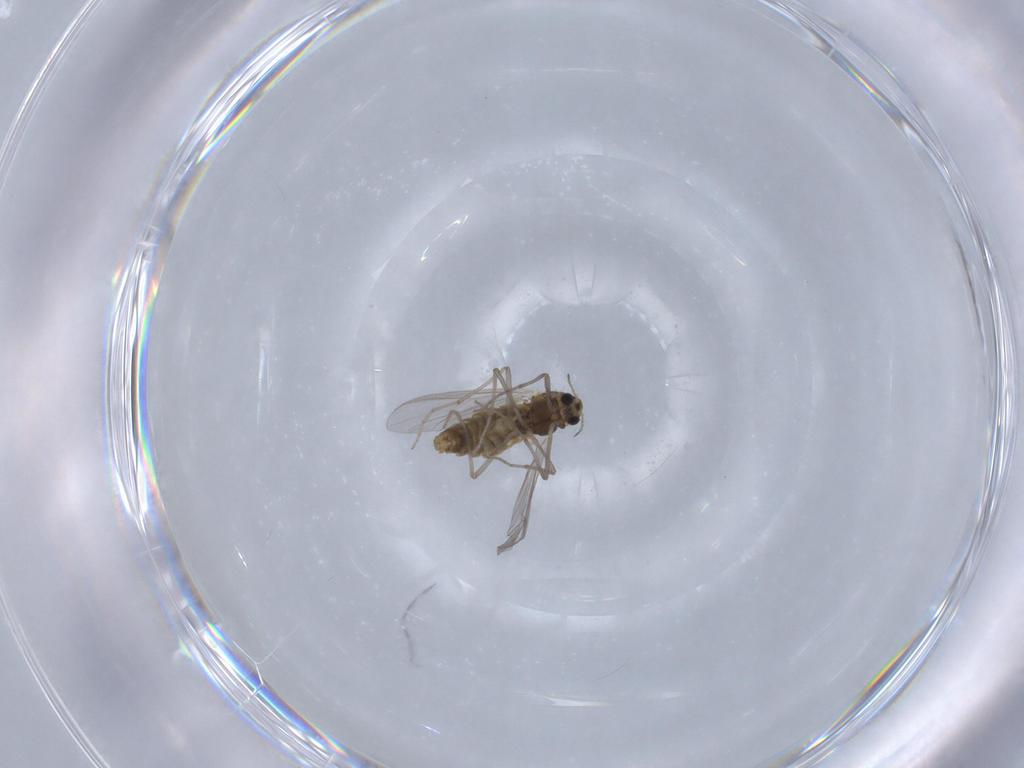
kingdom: Animalia
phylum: Arthropoda
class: Insecta
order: Diptera
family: Chironomidae
